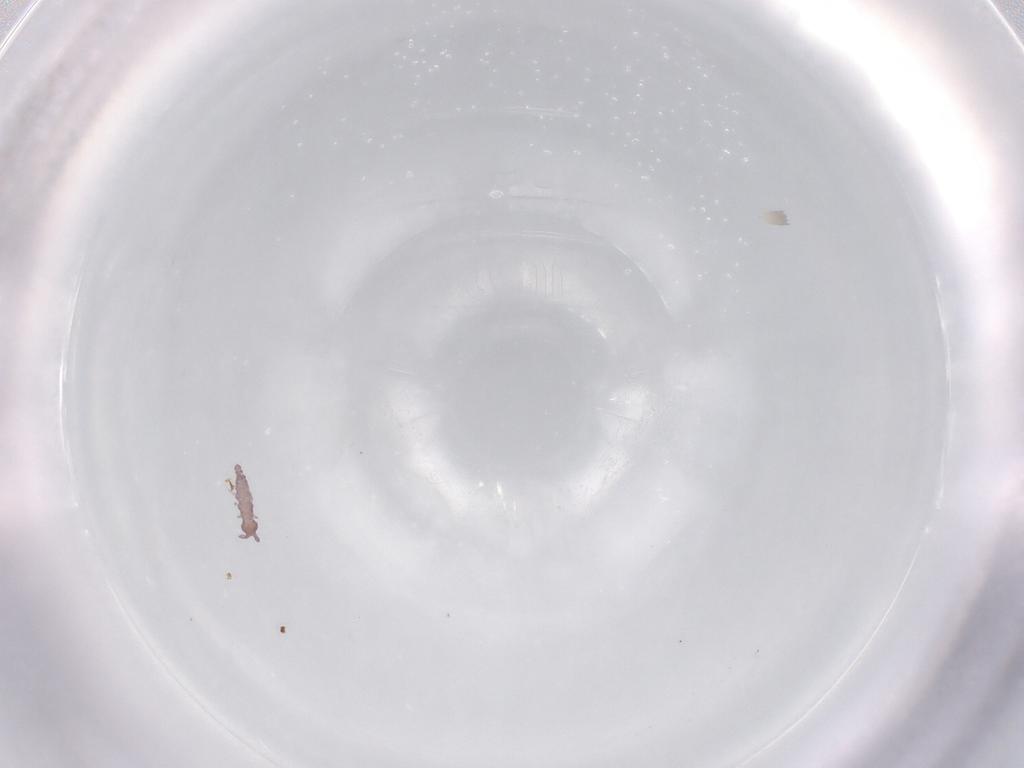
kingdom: Animalia
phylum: Arthropoda
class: Collembola
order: Poduromorpha
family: Hypogastruridae
